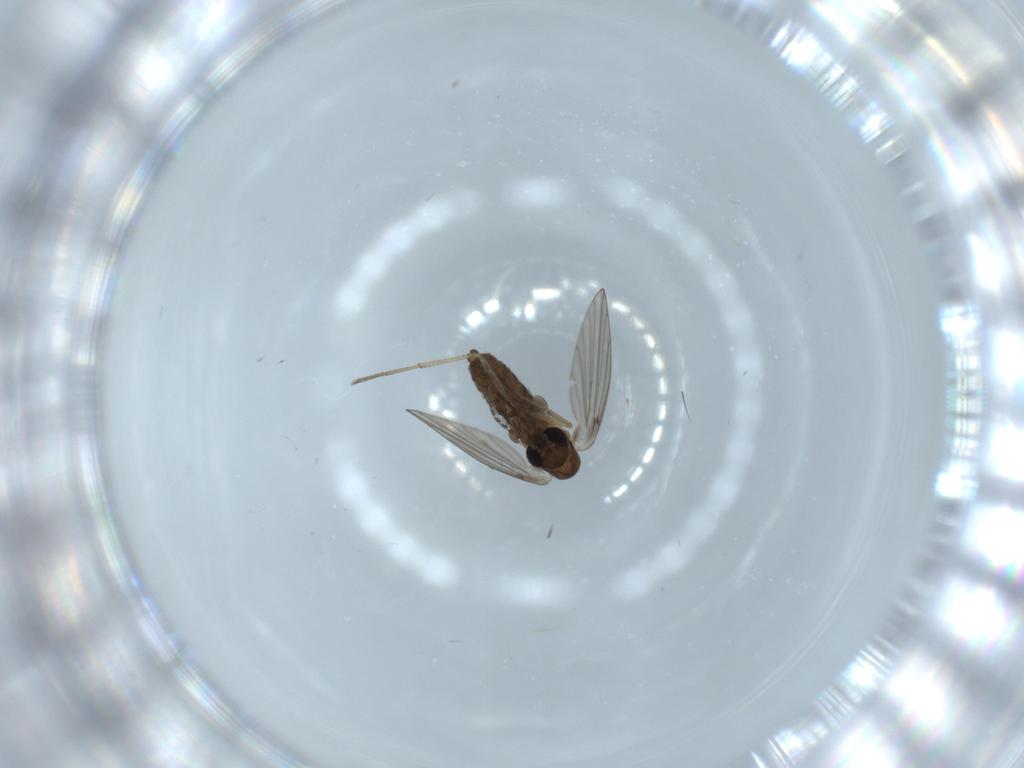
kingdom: Animalia
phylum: Arthropoda
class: Insecta
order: Diptera
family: Psychodidae
